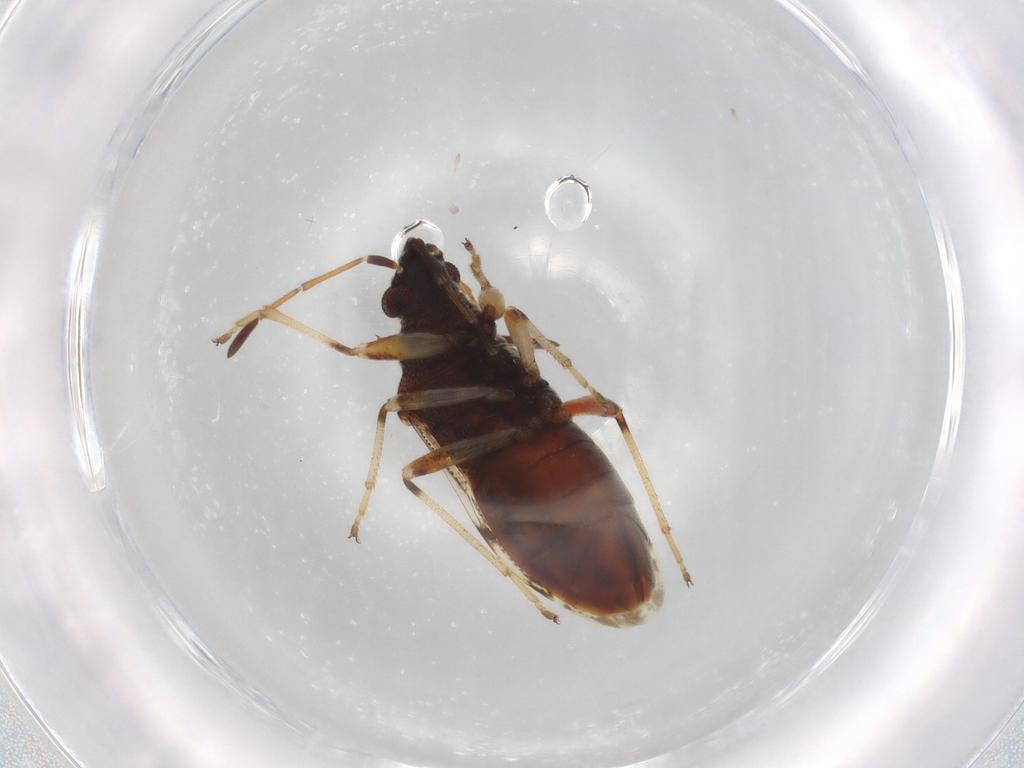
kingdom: Animalia
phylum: Arthropoda
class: Insecta
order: Hemiptera
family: Rhyparochromidae
